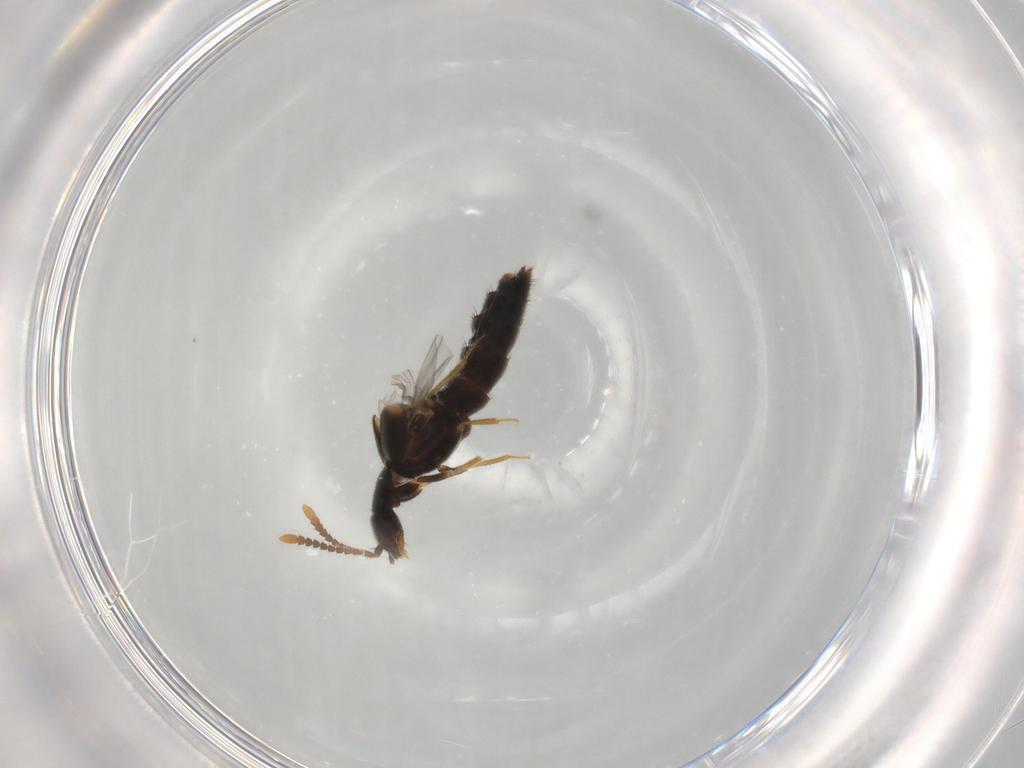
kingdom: Animalia
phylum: Arthropoda
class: Insecta
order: Coleoptera
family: Staphylinidae
